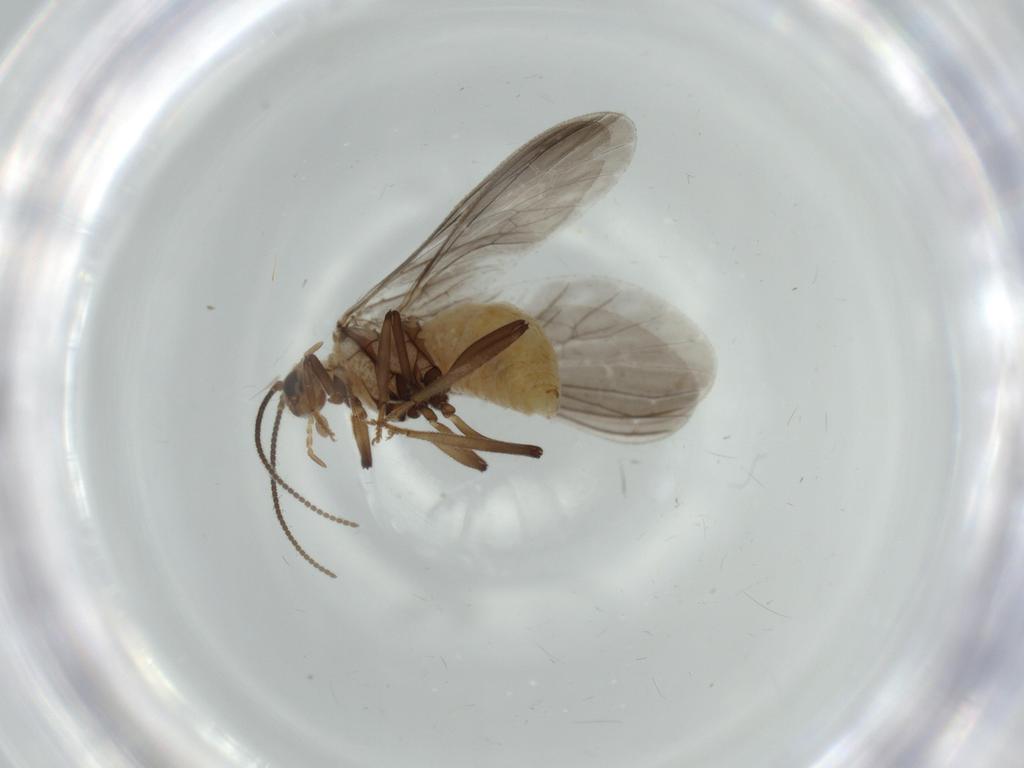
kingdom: Animalia
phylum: Arthropoda
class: Insecta
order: Neuroptera
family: Coniopterygidae
